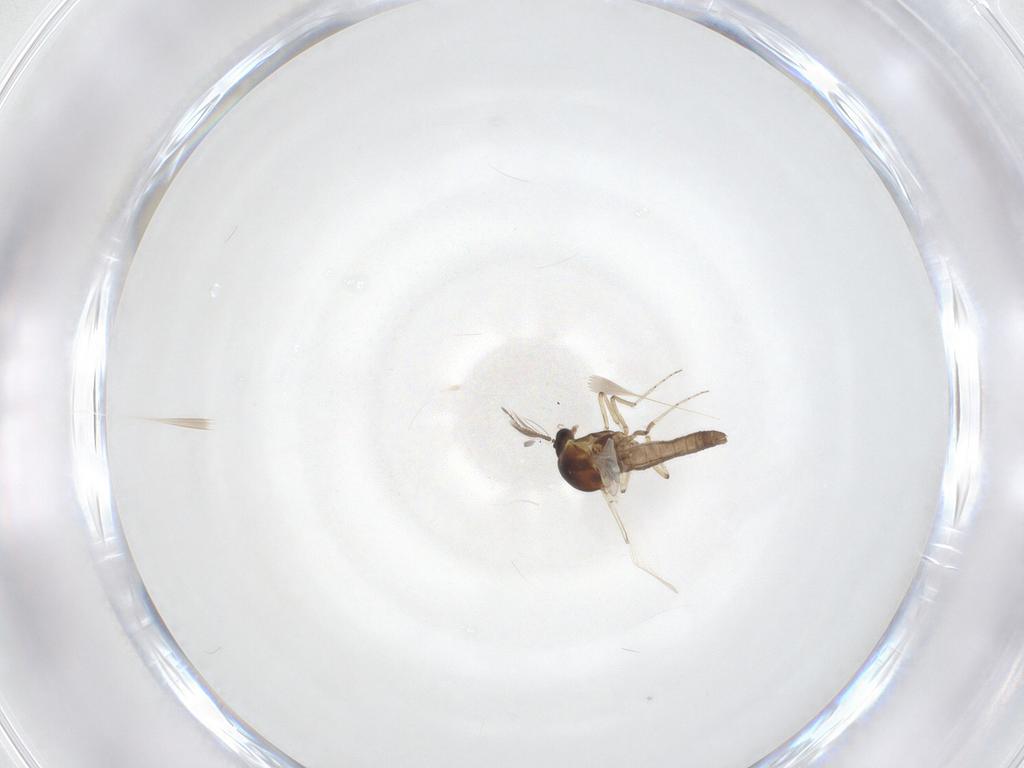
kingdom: Animalia
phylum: Arthropoda
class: Insecta
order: Diptera
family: Ceratopogonidae
